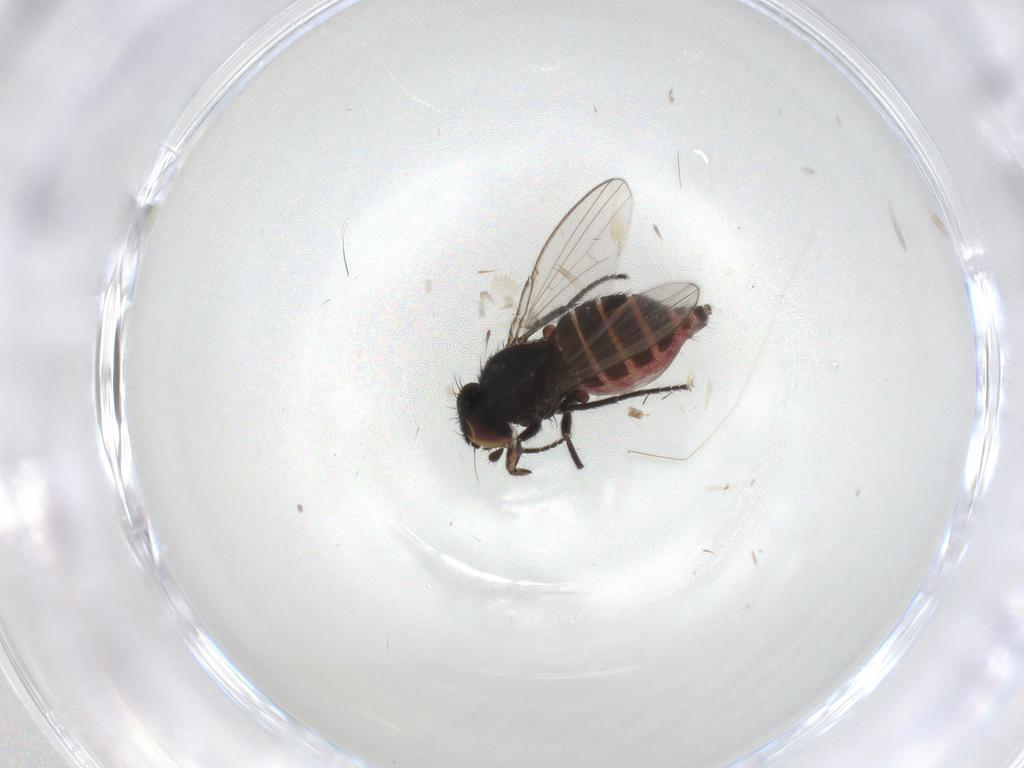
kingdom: Animalia
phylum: Arthropoda
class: Insecta
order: Diptera
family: Milichiidae
